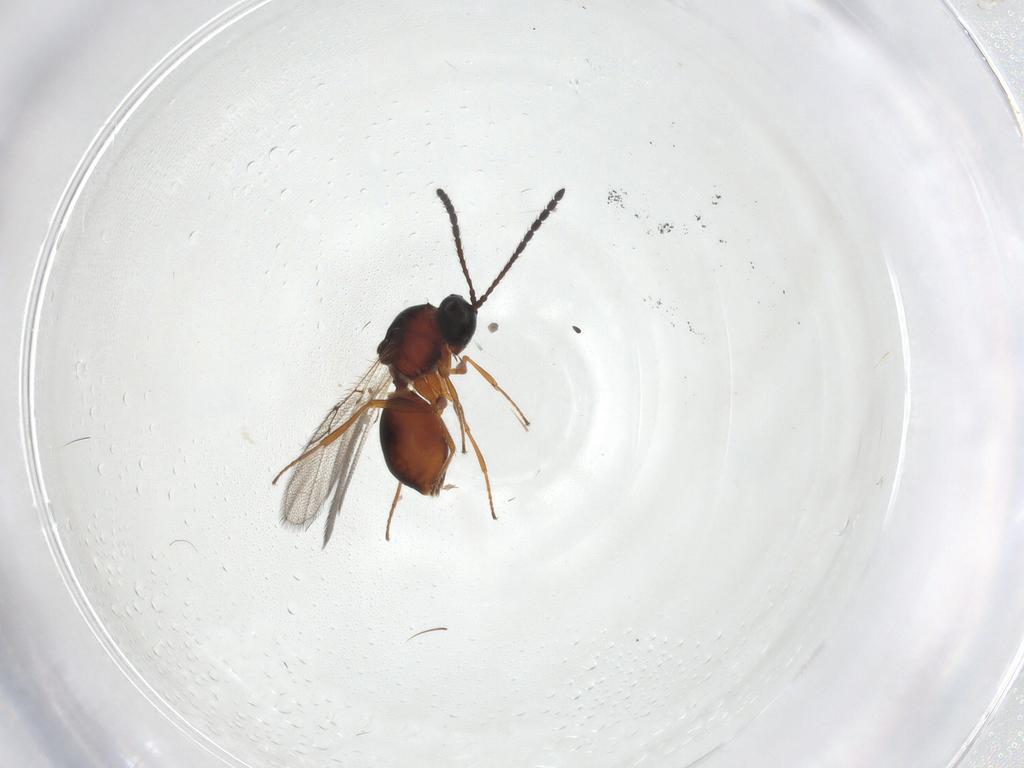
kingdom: Animalia
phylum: Arthropoda
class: Insecta
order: Hymenoptera
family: Figitidae
